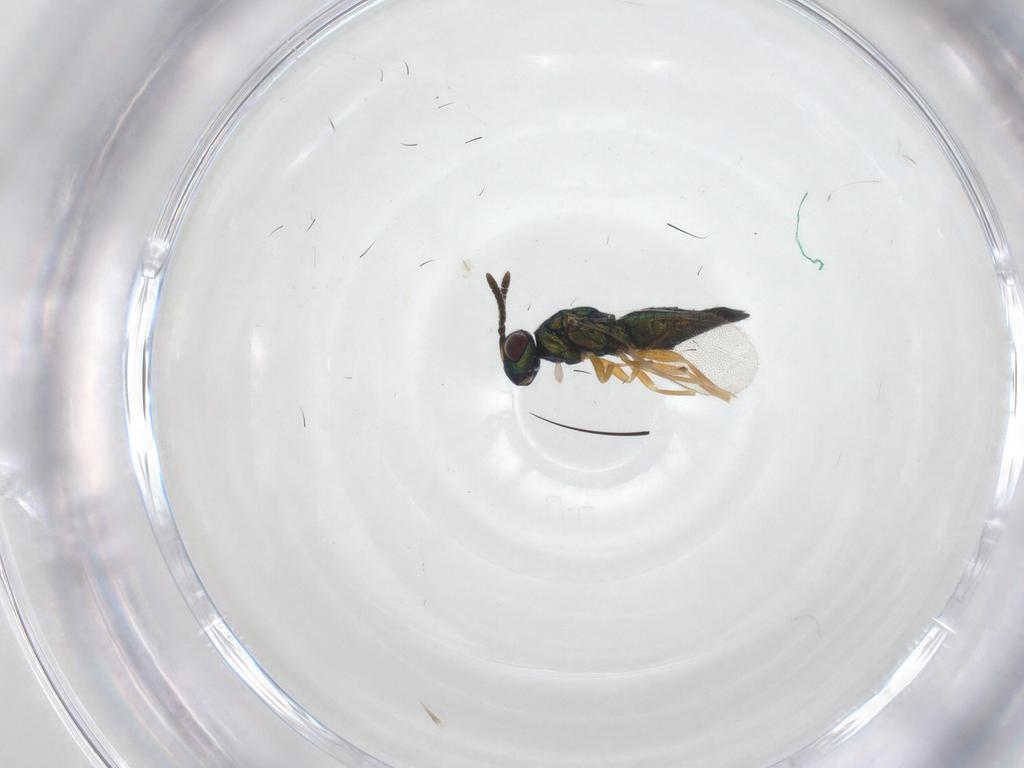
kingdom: Animalia
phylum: Arthropoda
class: Insecta
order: Hymenoptera
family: Pteromalidae
